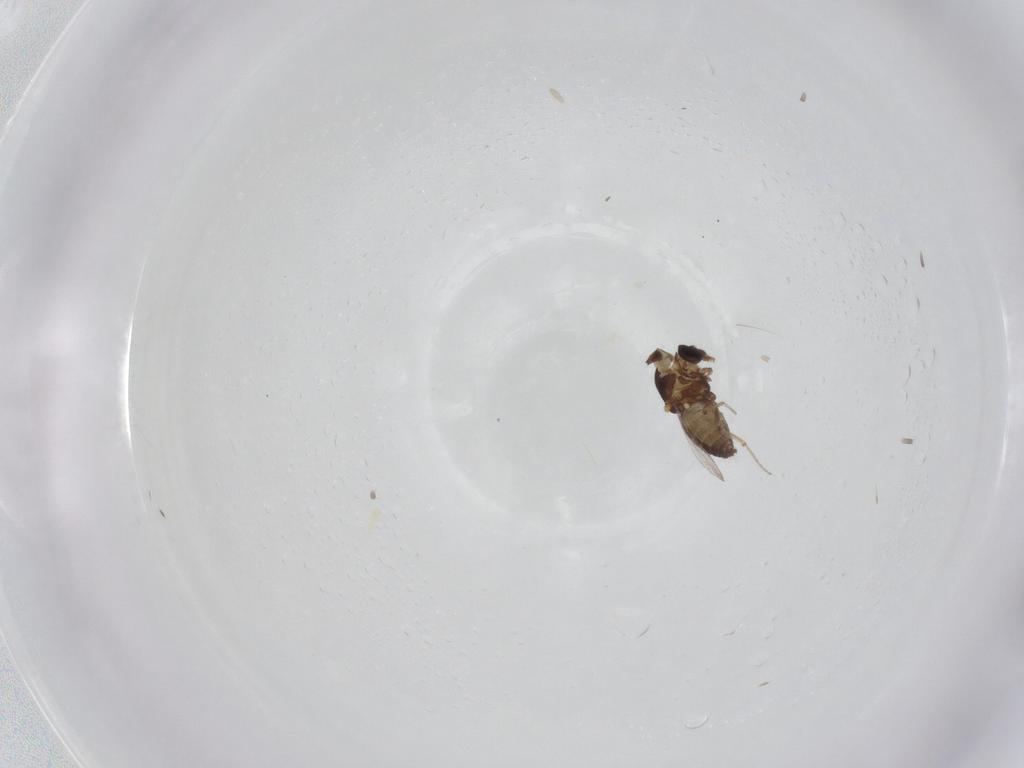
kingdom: Animalia
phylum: Arthropoda
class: Insecta
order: Diptera
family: Ceratopogonidae
